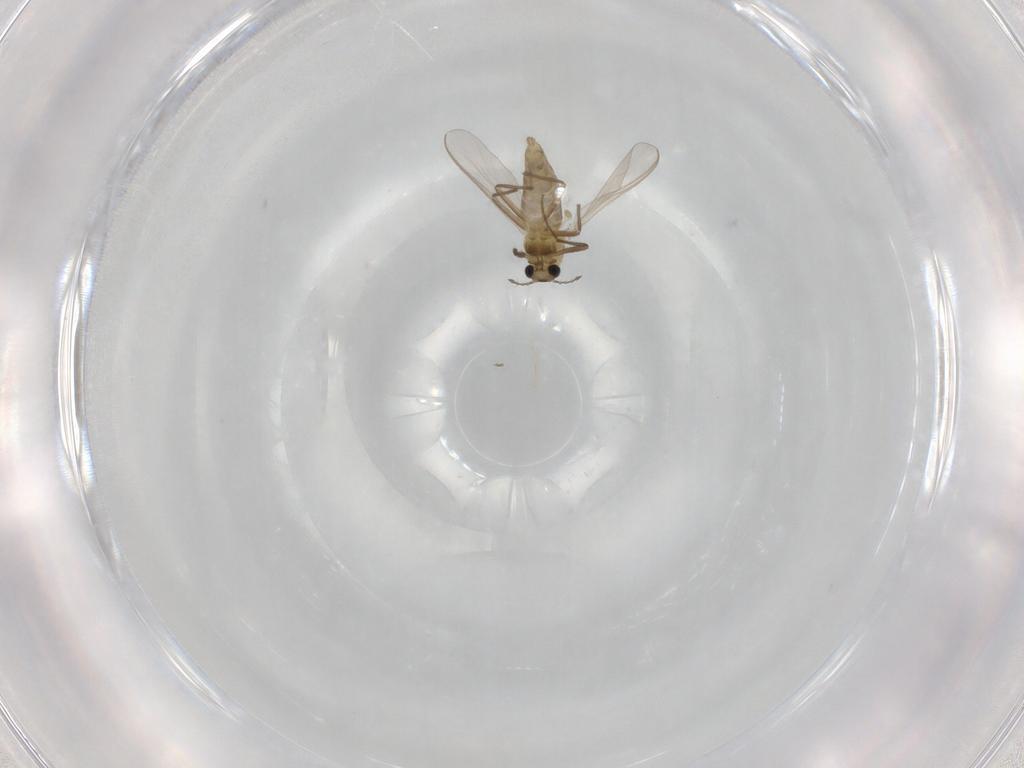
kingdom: Animalia
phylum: Arthropoda
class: Insecta
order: Diptera
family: Chironomidae
